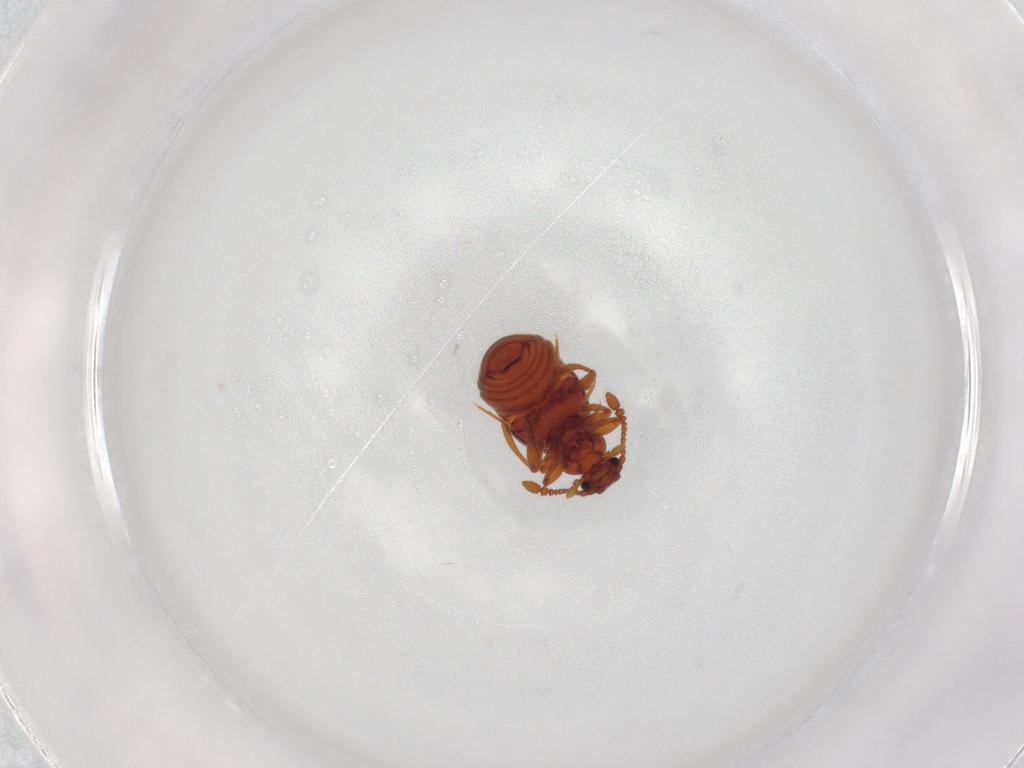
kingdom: Animalia
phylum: Arthropoda
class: Insecta
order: Coleoptera
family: Staphylinidae
